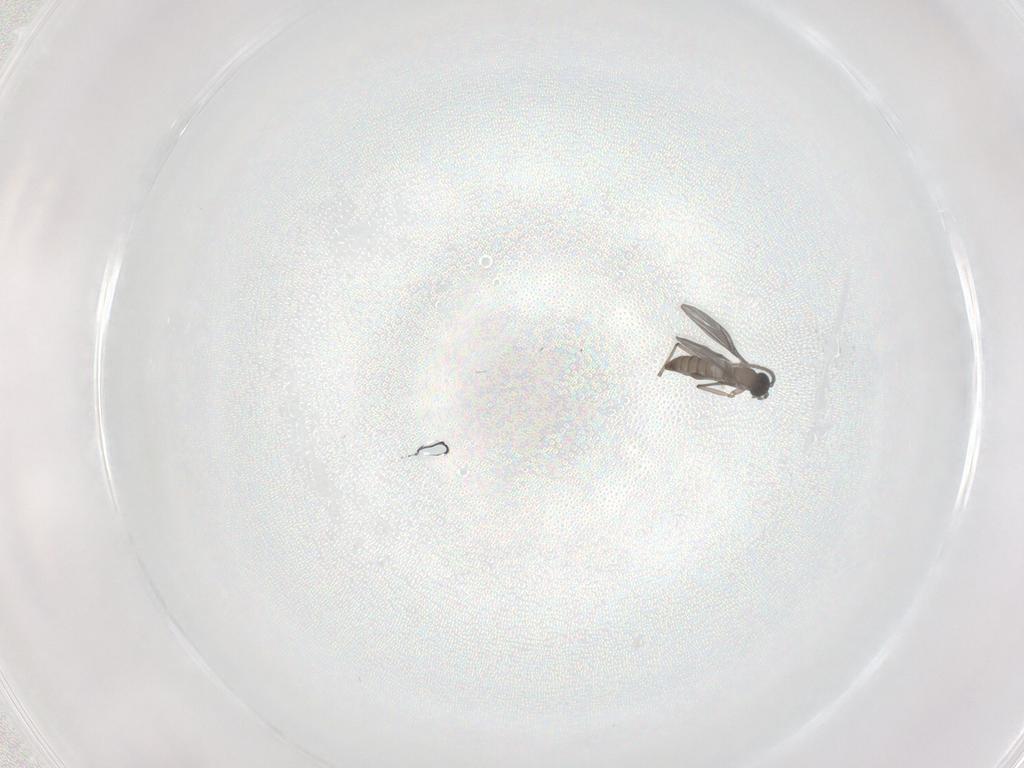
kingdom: Animalia
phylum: Arthropoda
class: Insecta
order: Diptera
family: Sciaridae
